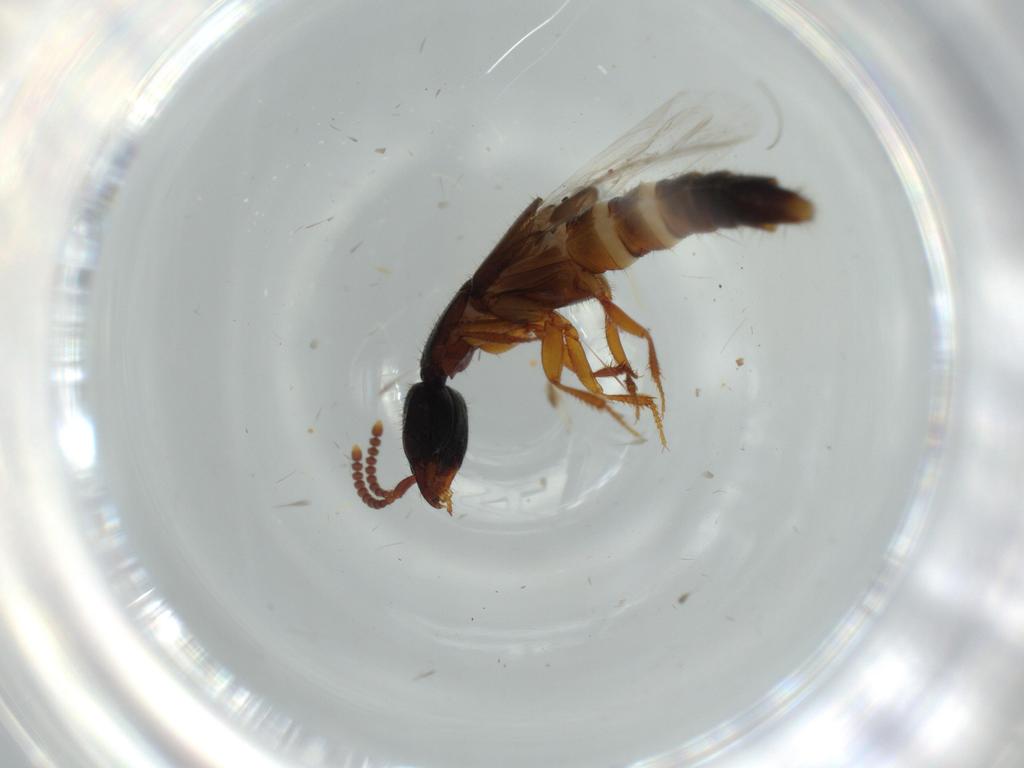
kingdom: Animalia
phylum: Arthropoda
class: Insecta
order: Coleoptera
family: Staphylinidae
